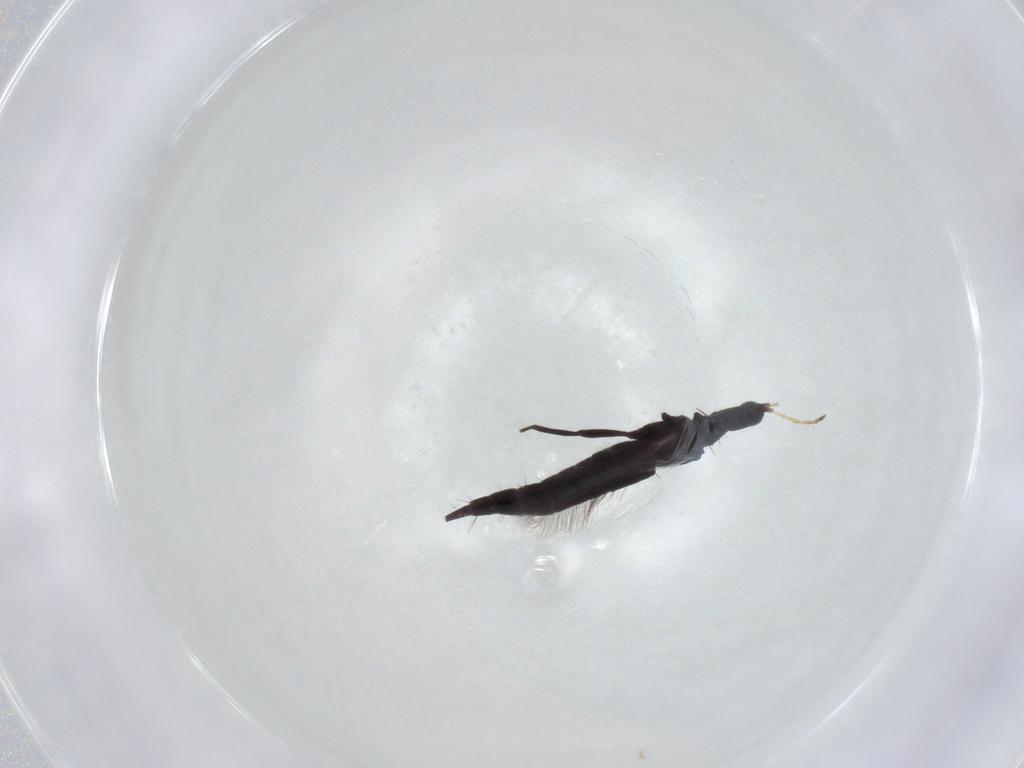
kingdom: Animalia
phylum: Arthropoda
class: Insecta
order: Thysanoptera
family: Phlaeothripidae
